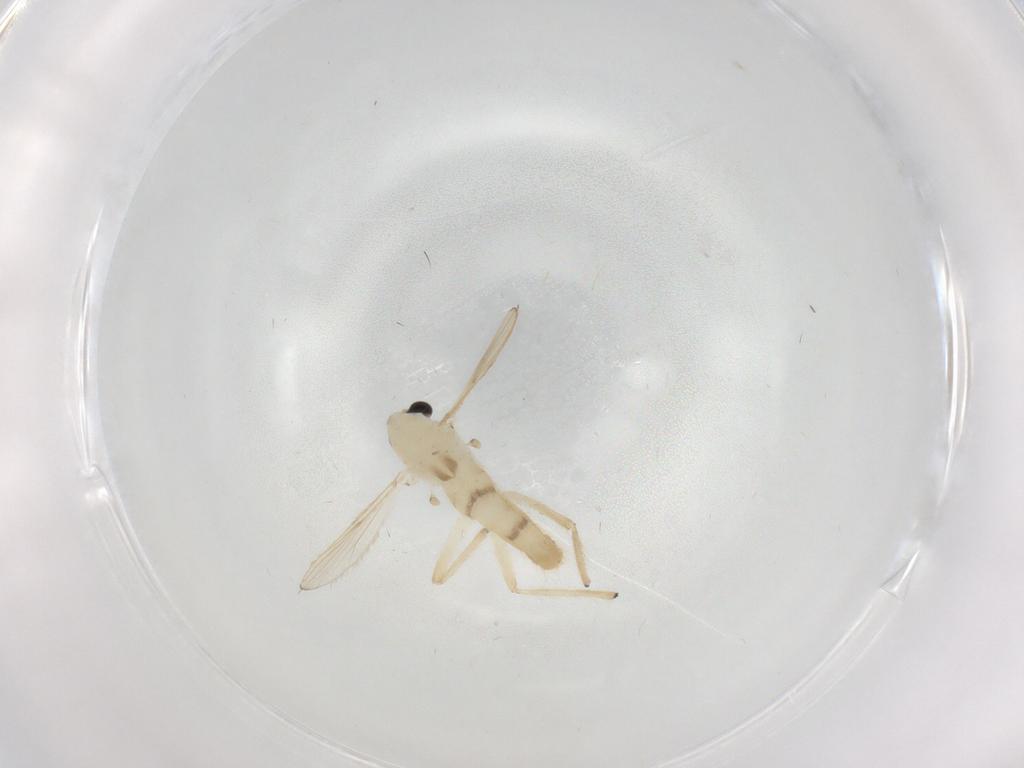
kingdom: Animalia
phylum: Arthropoda
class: Insecta
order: Diptera
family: Chironomidae
